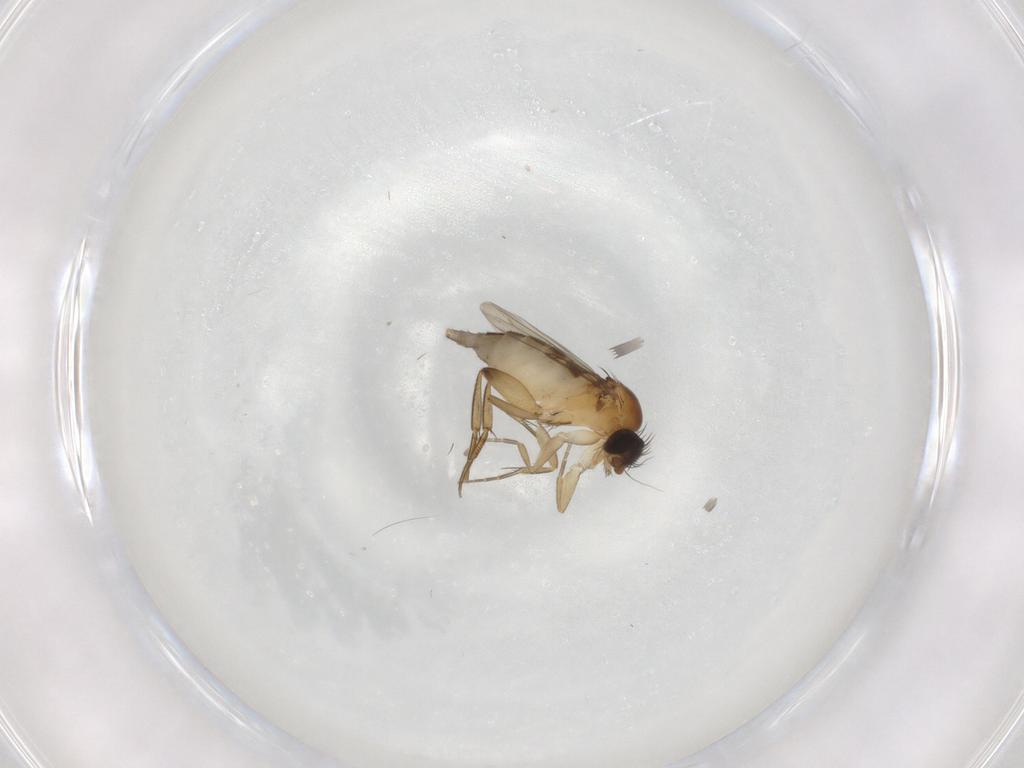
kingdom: Animalia
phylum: Arthropoda
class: Insecta
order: Diptera
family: Phoridae
